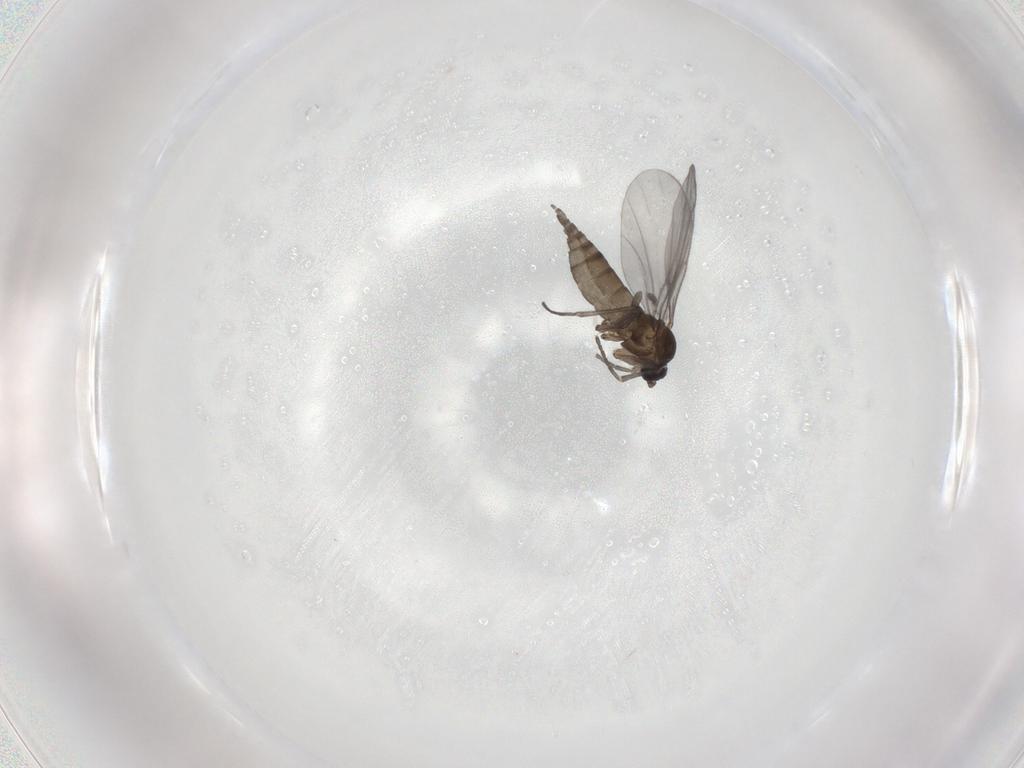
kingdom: Animalia
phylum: Arthropoda
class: Insecta
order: Diptera
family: Sciaridae
